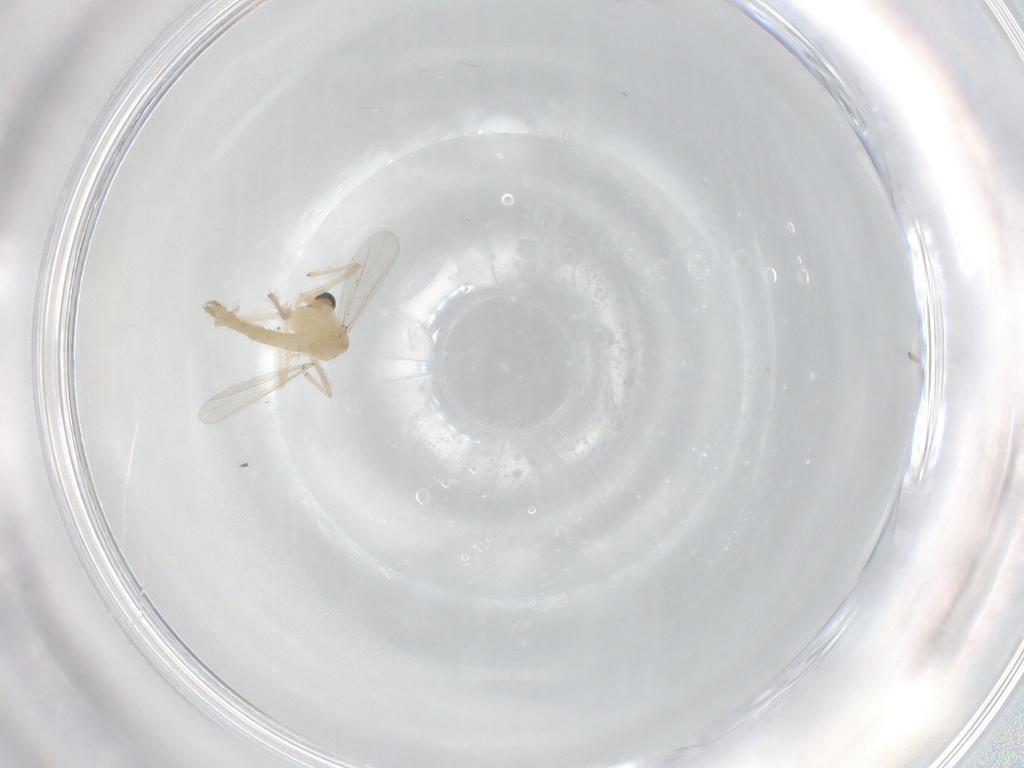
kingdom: Animalia
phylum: Arthropoda
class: Insecta
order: Diptera
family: Chironomidae
